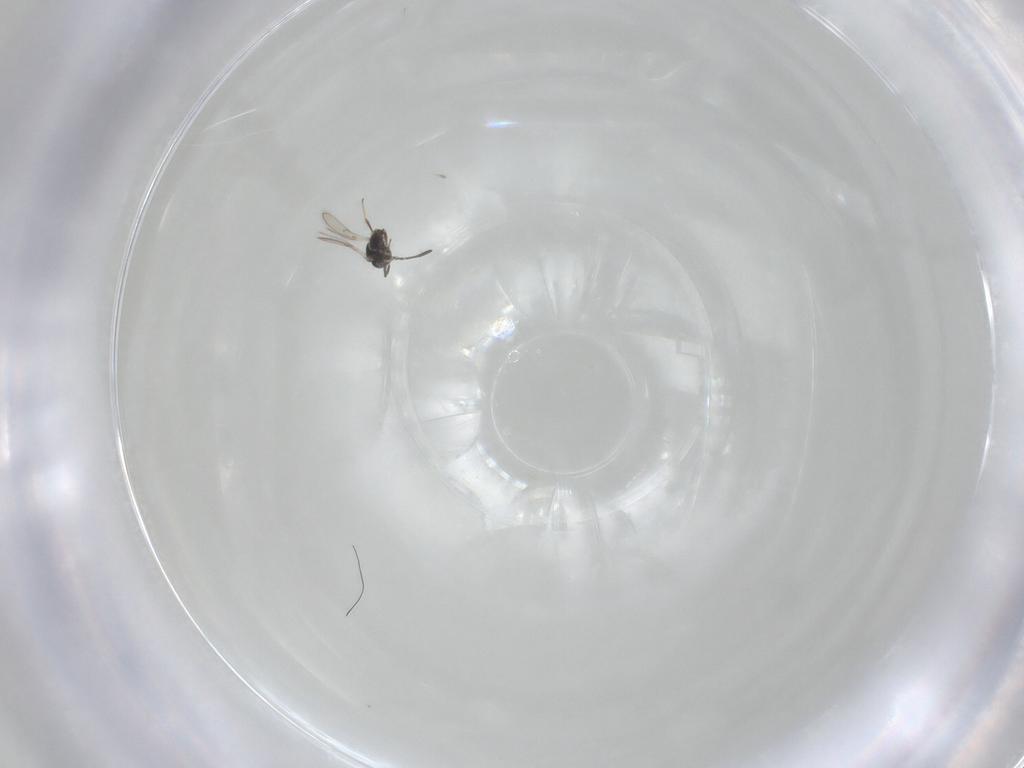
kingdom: Animalia
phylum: Arthropoda
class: Insecta
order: Hymenoptera
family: Scelionidae
